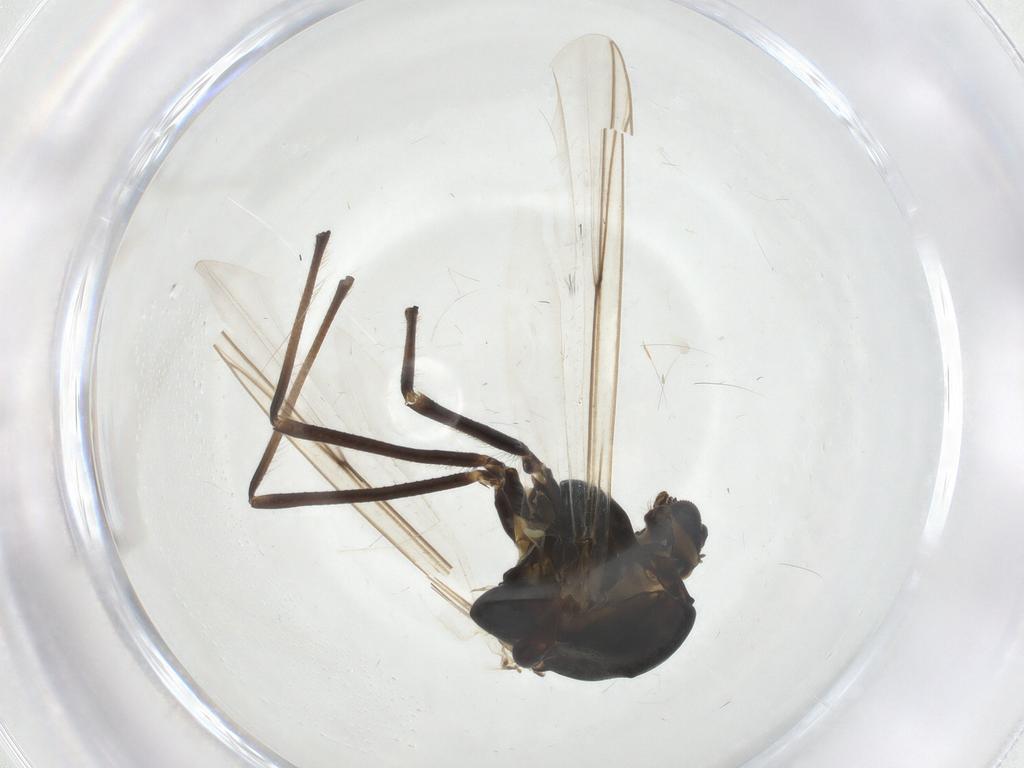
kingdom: Animalia
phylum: Arthropoda
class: Insecta
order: Diptera
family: Chironomidae
